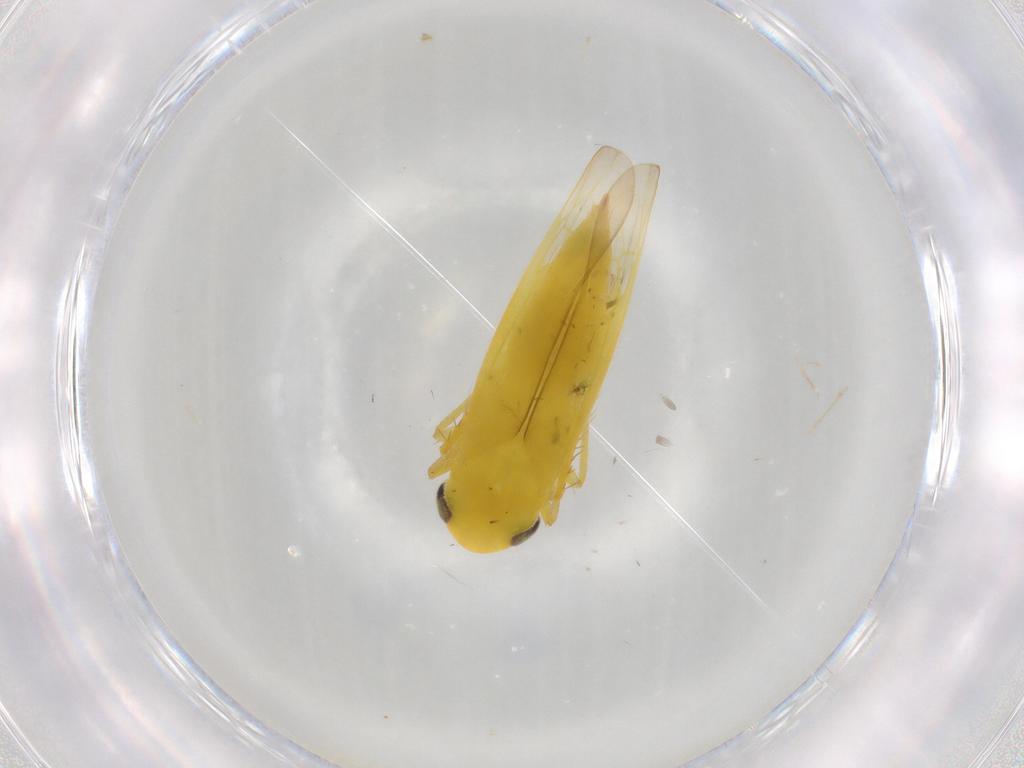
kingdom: Animalia
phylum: Arthropoda
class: Insecta
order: Hemiptera
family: Cicadellidae
